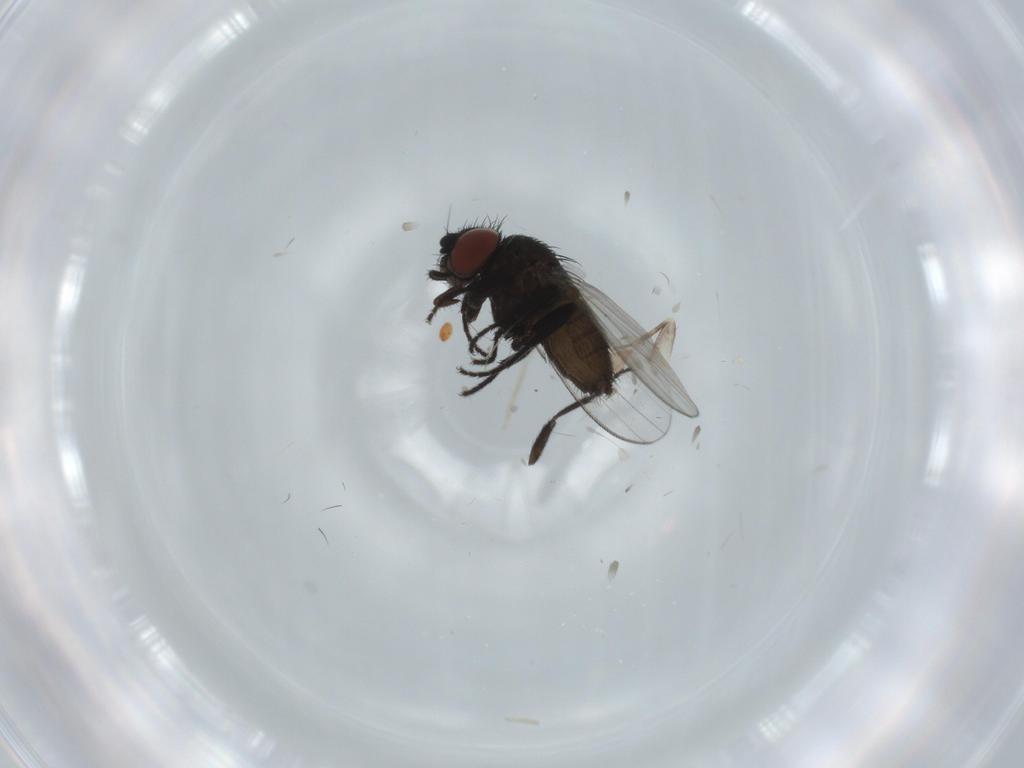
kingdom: Animalia
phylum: Arthropoda
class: Insecta
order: Diptera
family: Milichiidae
